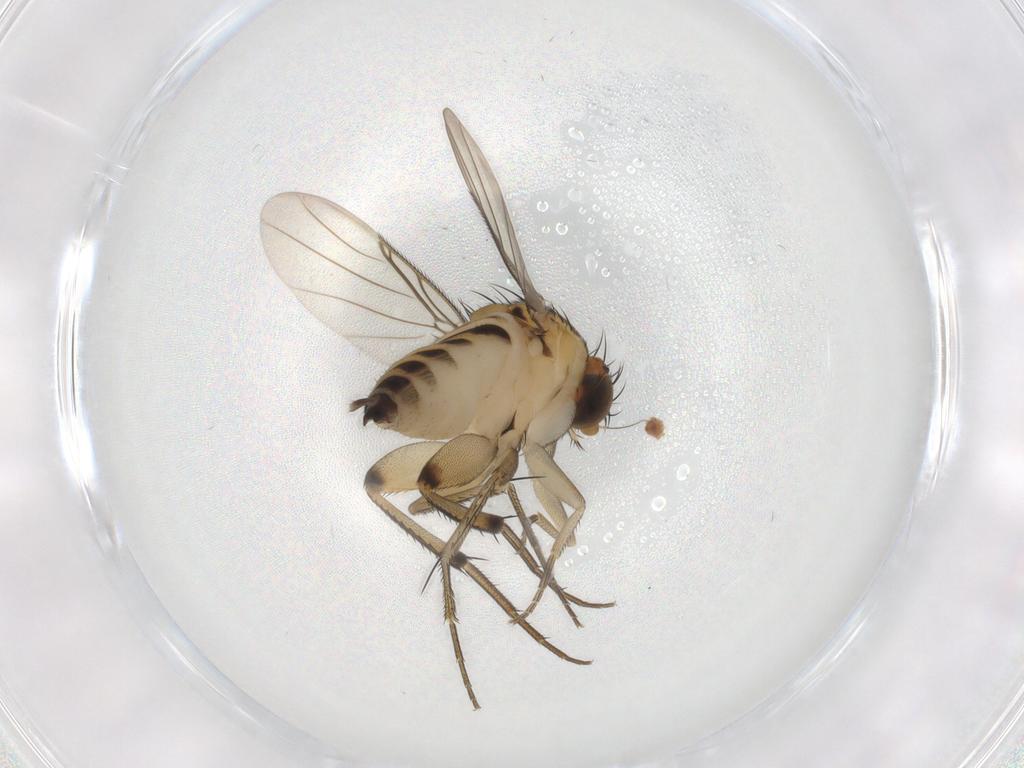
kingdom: Animalia
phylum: Arthropoda
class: Insecta
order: Diptera
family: Phoridae
